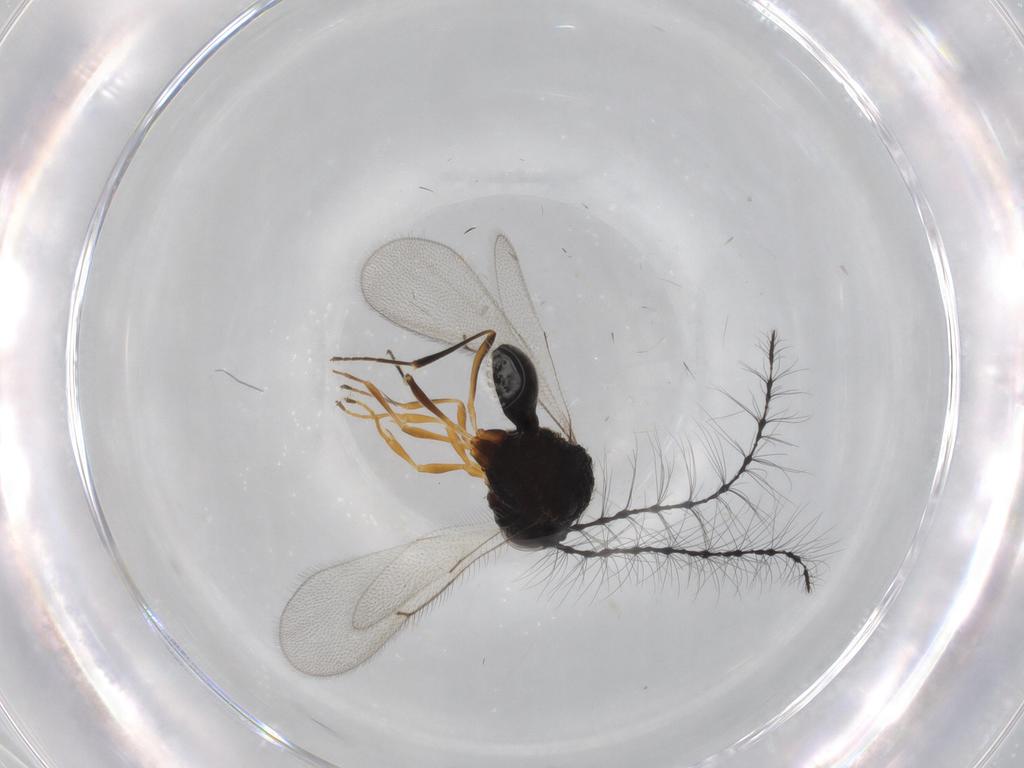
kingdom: Animalia
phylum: Arthropoda
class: Insecta
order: Hymenoptera
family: Scelionidae
